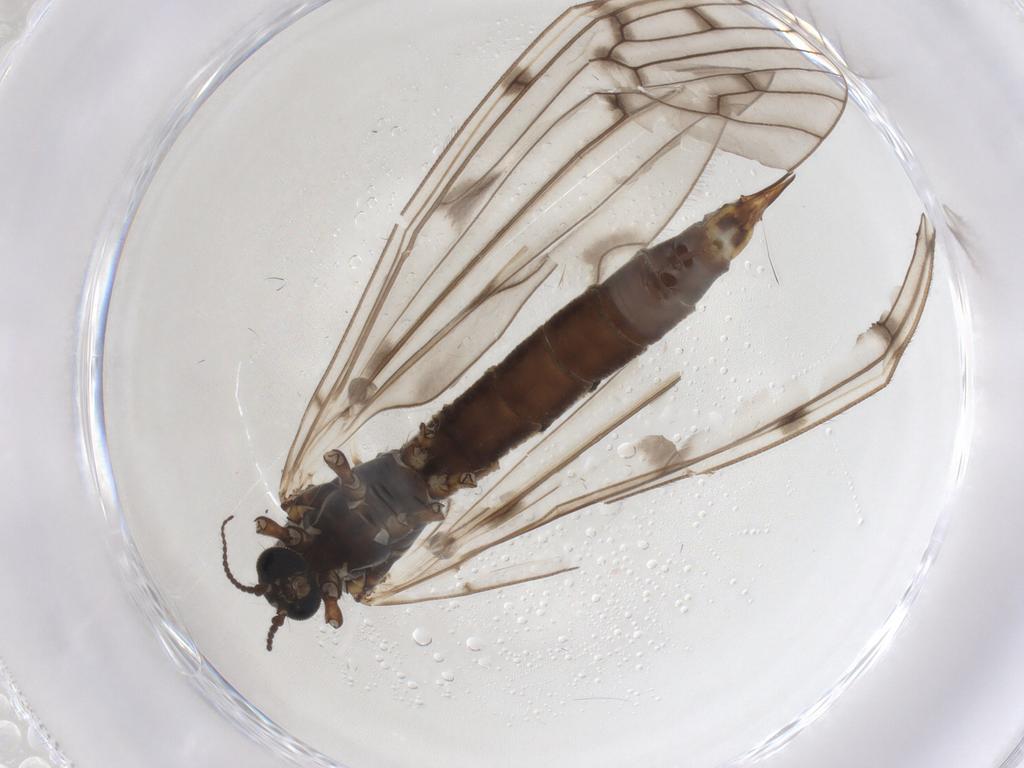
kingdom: Animalia
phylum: Arthropoda
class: Insecta
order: Diptera
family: Limoniidae
